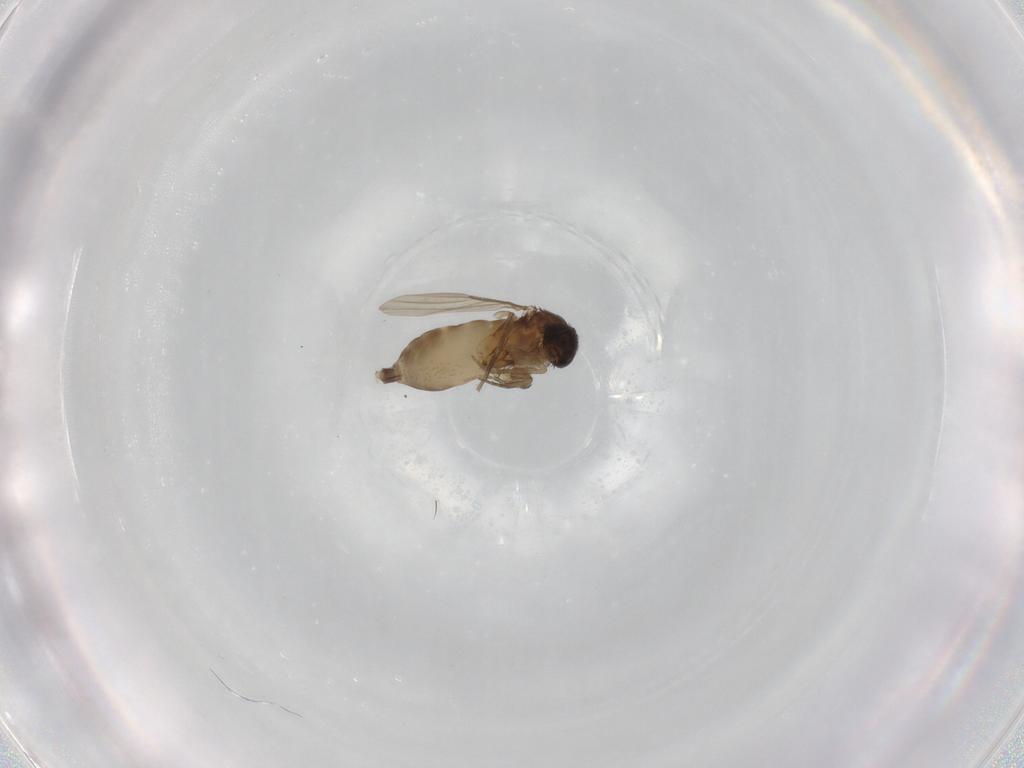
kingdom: Animalia
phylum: Arthropoda
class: Insecta
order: Diptera
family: Phoridae
